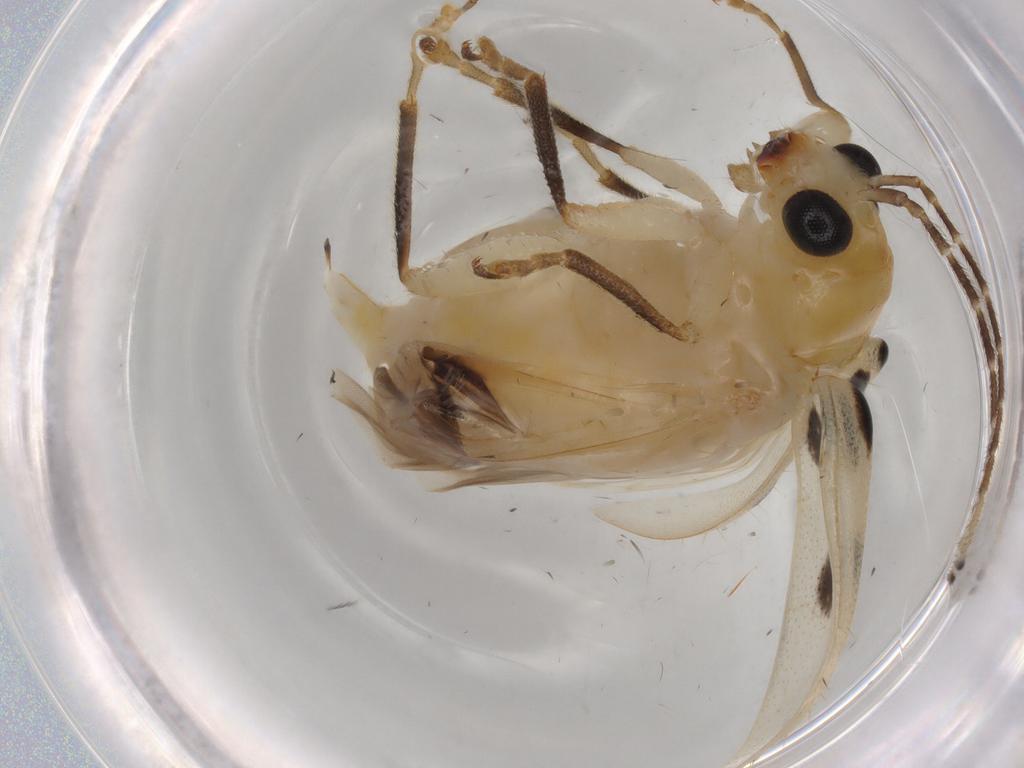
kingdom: Animalia
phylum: Arthropoda
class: Insecta
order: Coleoptera
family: Chrysomelidae
